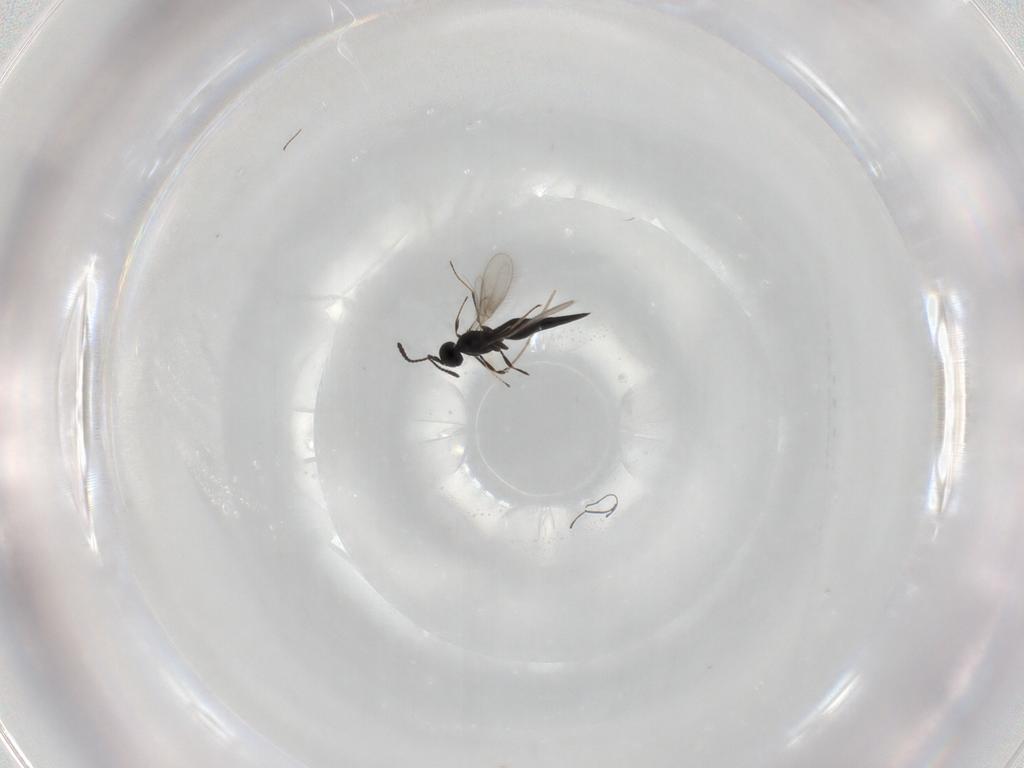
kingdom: Animalia
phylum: Arthropoda
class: Insecta
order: Hymenoptera
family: Scelionidae
